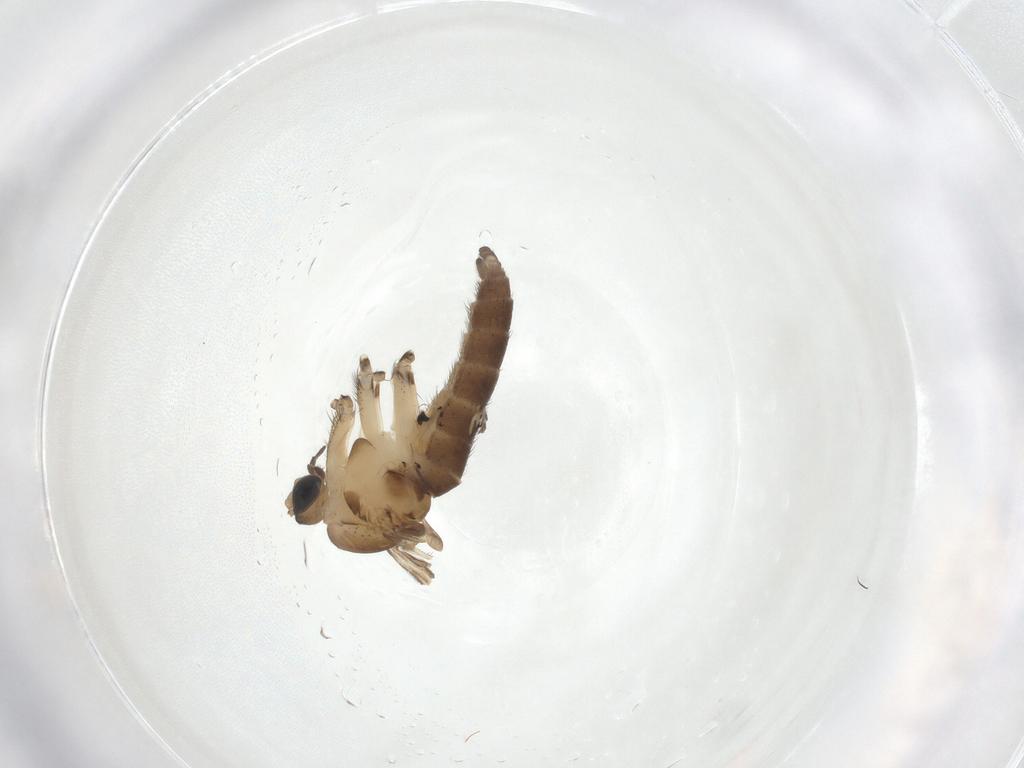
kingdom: Animalia
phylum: Arthropoda
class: Insecta
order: Diptera
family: Sciaridae
